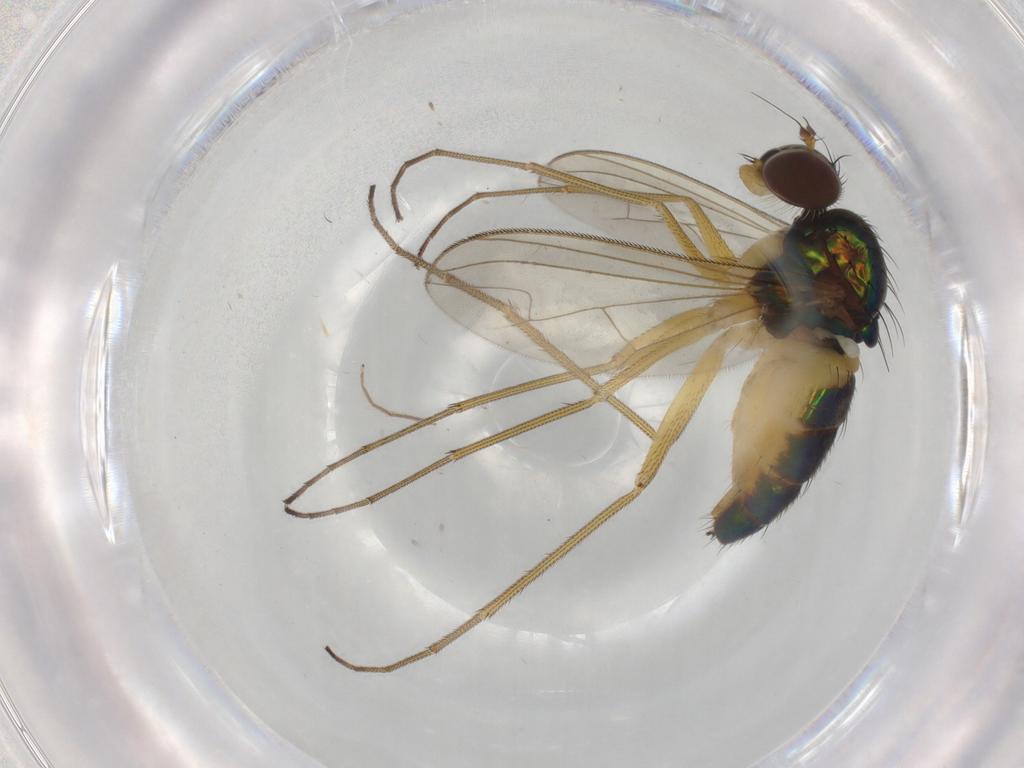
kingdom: Animalia
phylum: Arthropoda
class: Insecta
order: Diptera
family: Dolichopodidae
